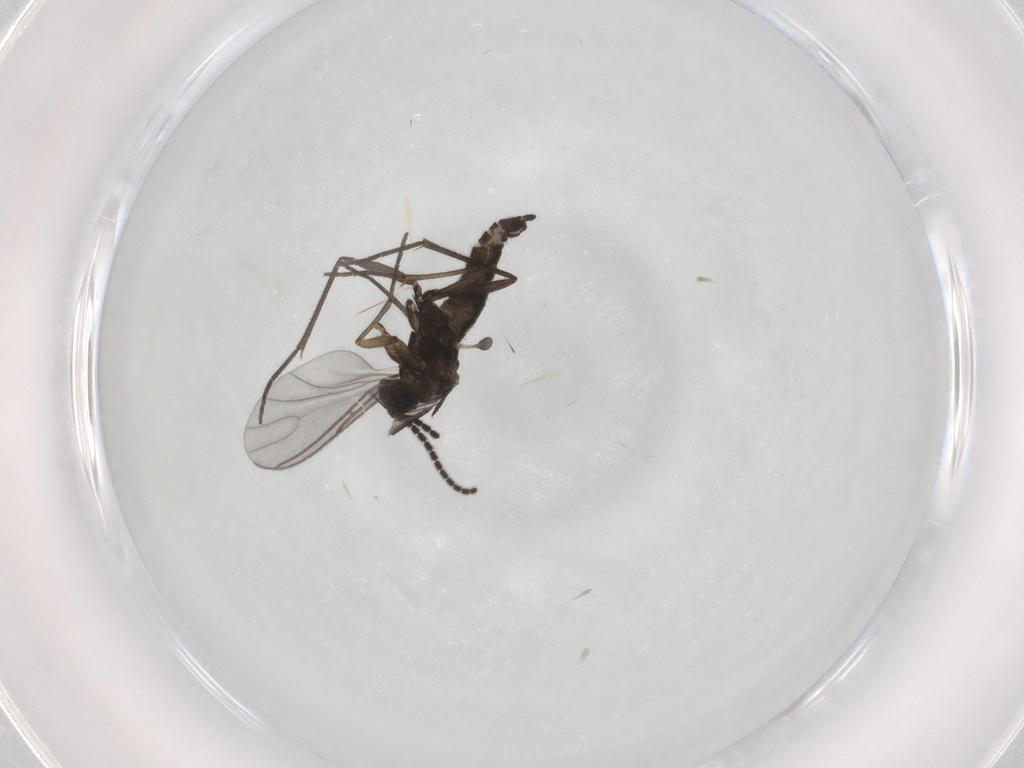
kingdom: Animalia
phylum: Arthropoda
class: Insecta
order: Diptera
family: Sciaridae
